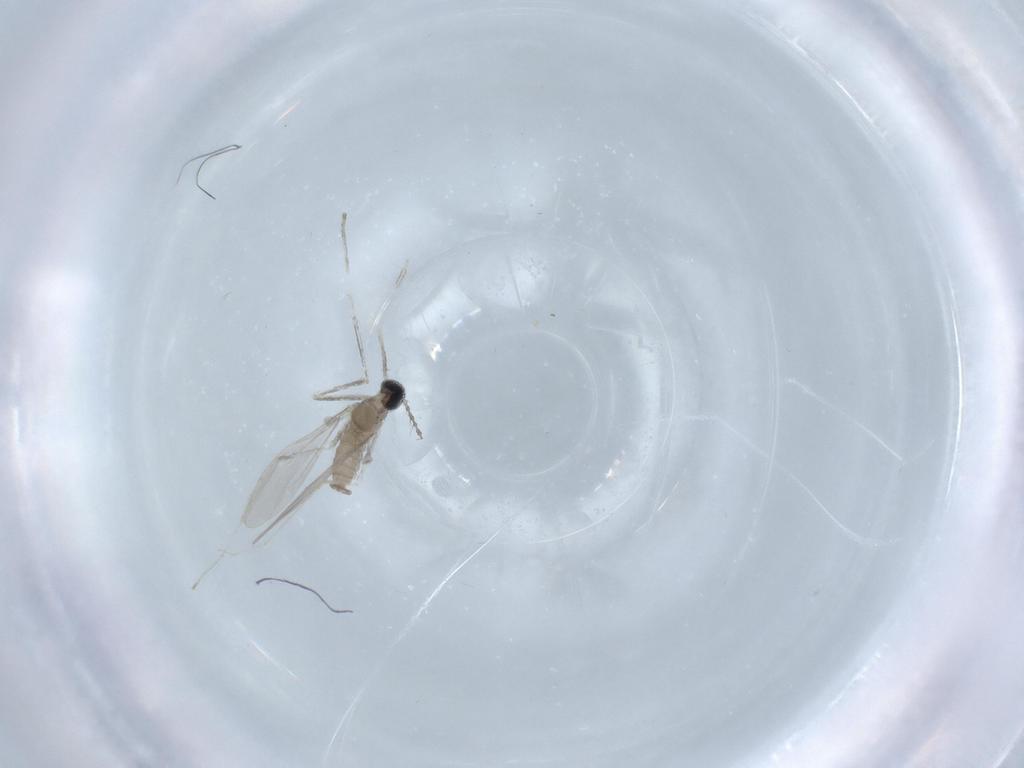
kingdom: Animalia
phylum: Arthropoda
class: Insecta
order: Diptera
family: Cecidomyiidae
